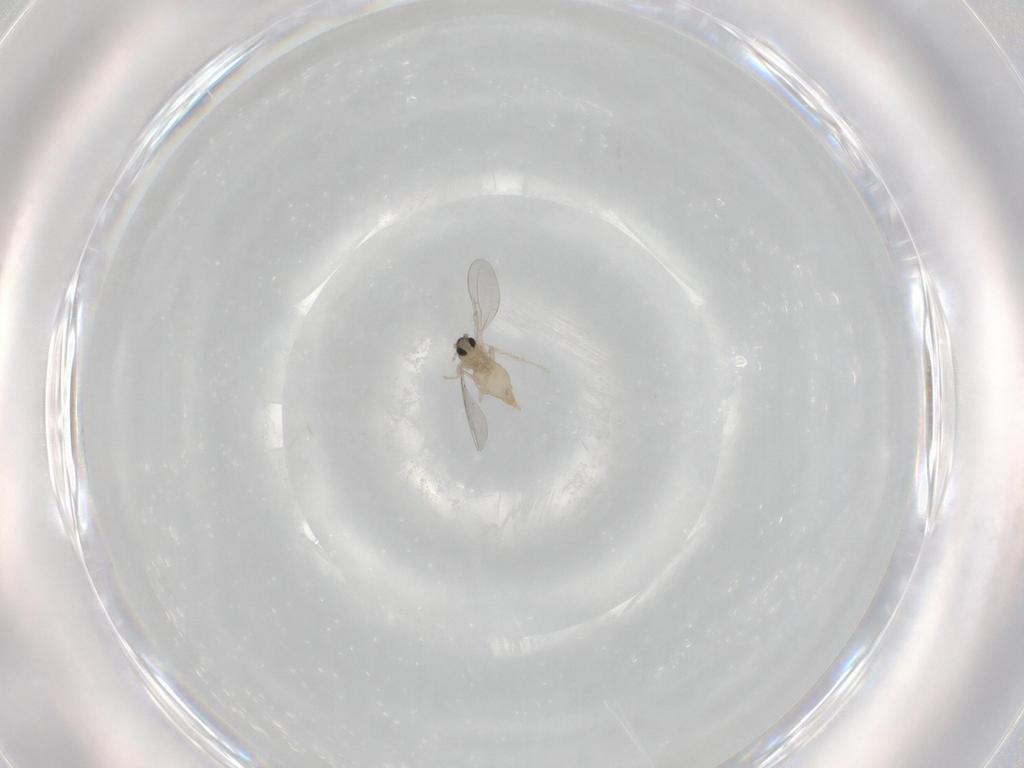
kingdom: Animalia
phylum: Arthropoda
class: Insecta
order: Diptera
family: Cecidomyiidae
